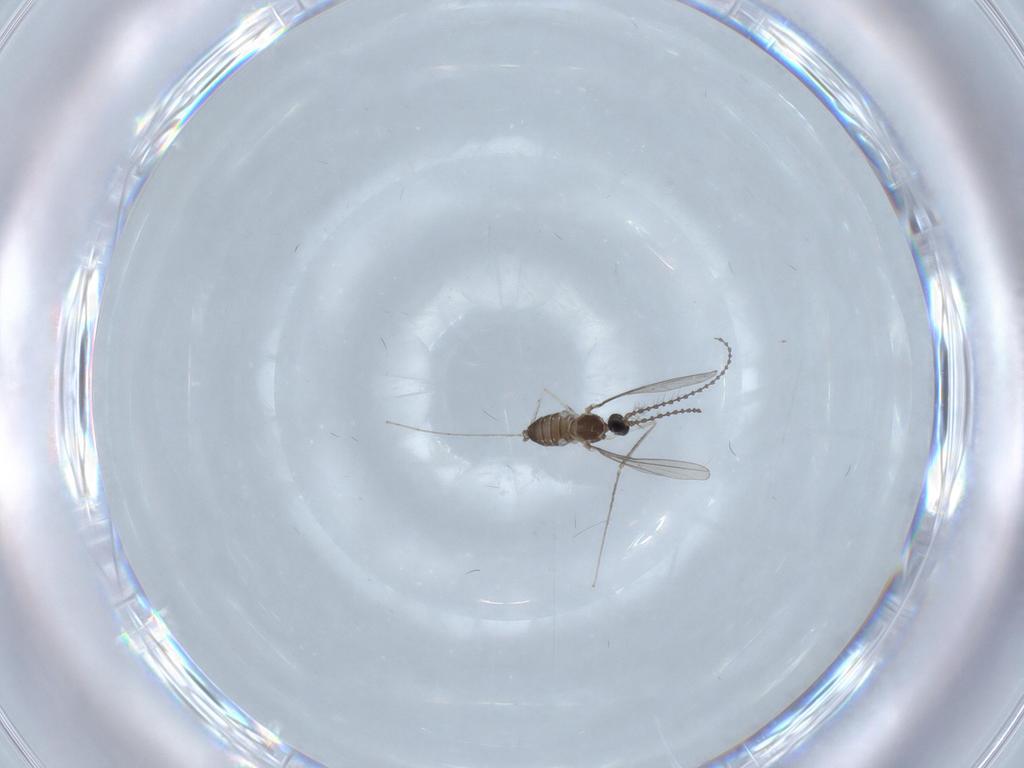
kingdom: Animalia
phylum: Arthropoda
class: Insecta
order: Diptera
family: Cecidomyiidae
